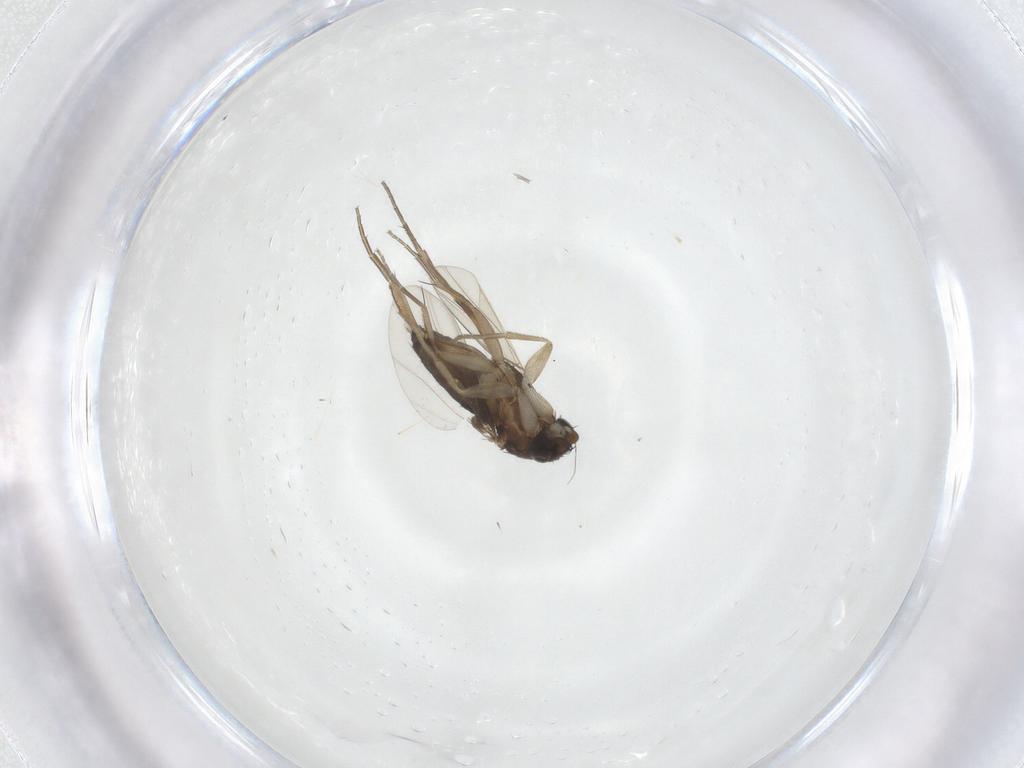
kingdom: Animalia
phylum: Arthropoda
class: Insecta
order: Diptera
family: Phoridae
